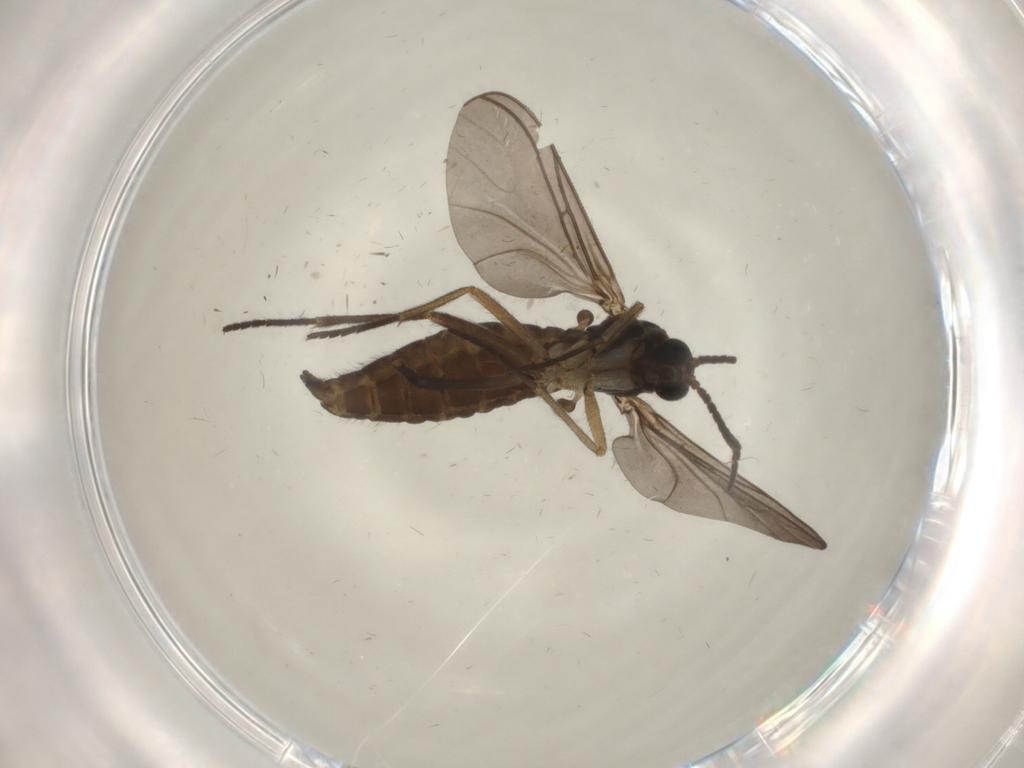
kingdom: Animalia
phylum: Arthropoda
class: Insecta
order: Diptera
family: Sciaridae
